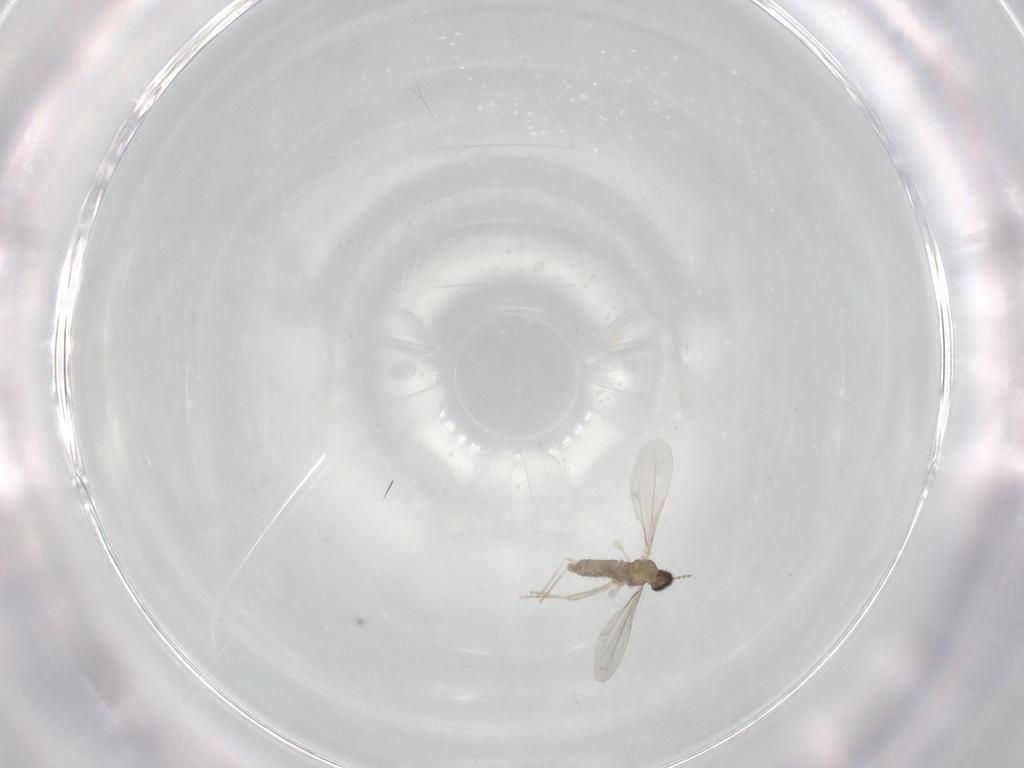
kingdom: Animalia
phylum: Arthropoda
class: Insecta
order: Diptera
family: Cecidomyiidae
